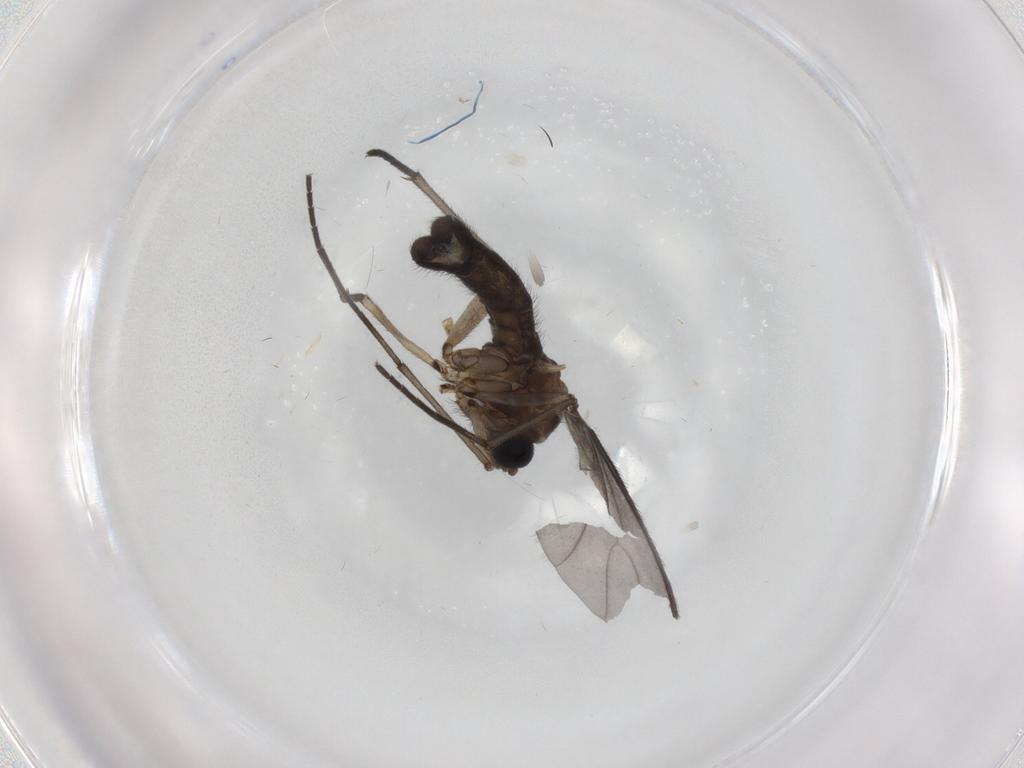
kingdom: Animalia
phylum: Arthropoda
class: Insecta
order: Diptera
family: Sciaridae
